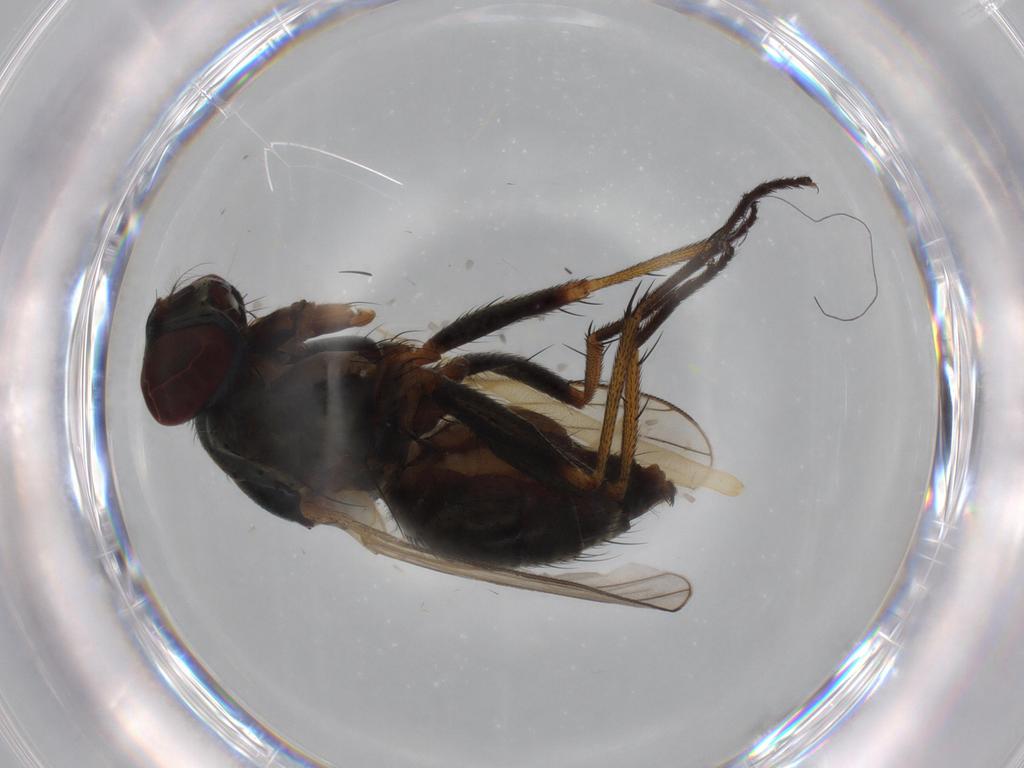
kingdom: Animalia
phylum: Arthropoda
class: Insecta
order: Diptera
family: Muscidae
